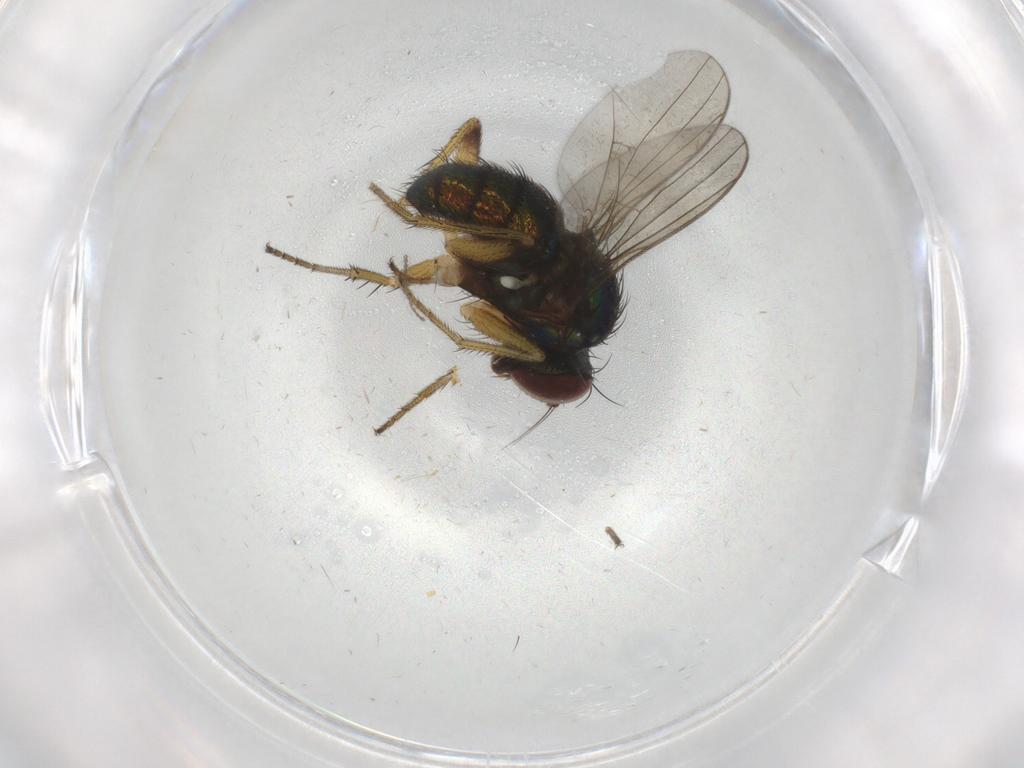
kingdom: Animalia
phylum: Arthropoda
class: Insecta
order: Diptera
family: Dolichopodidae
